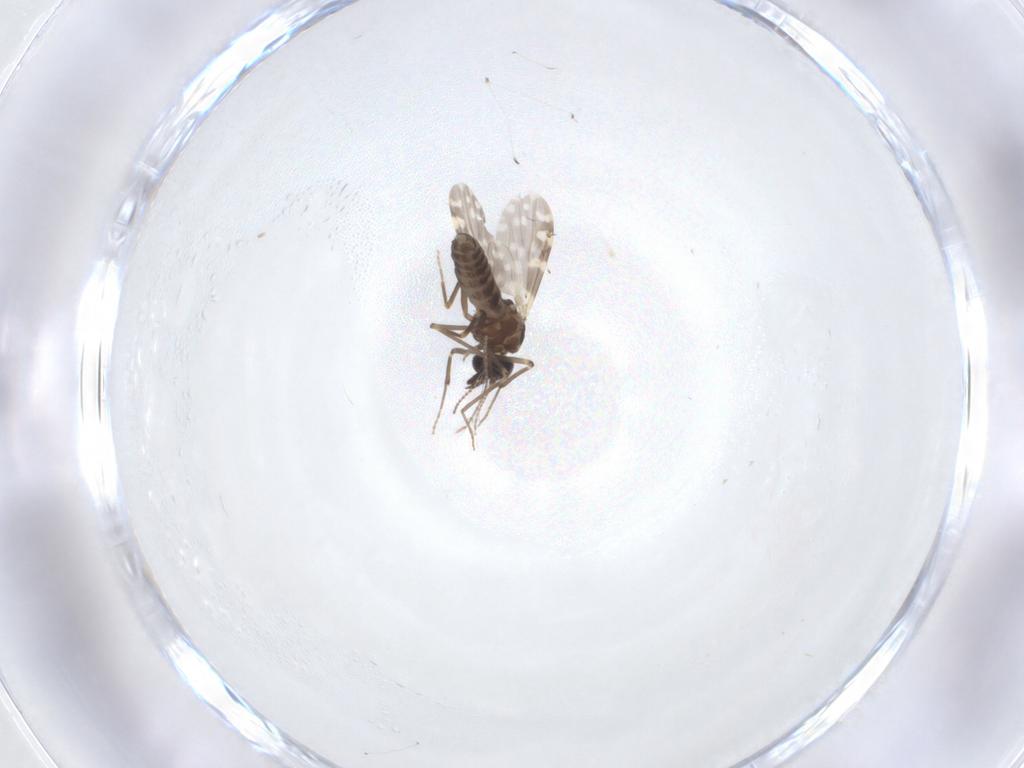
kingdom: Animalia
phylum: Arthropoda
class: Insecta
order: Diptera
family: Ceratopogonidae
